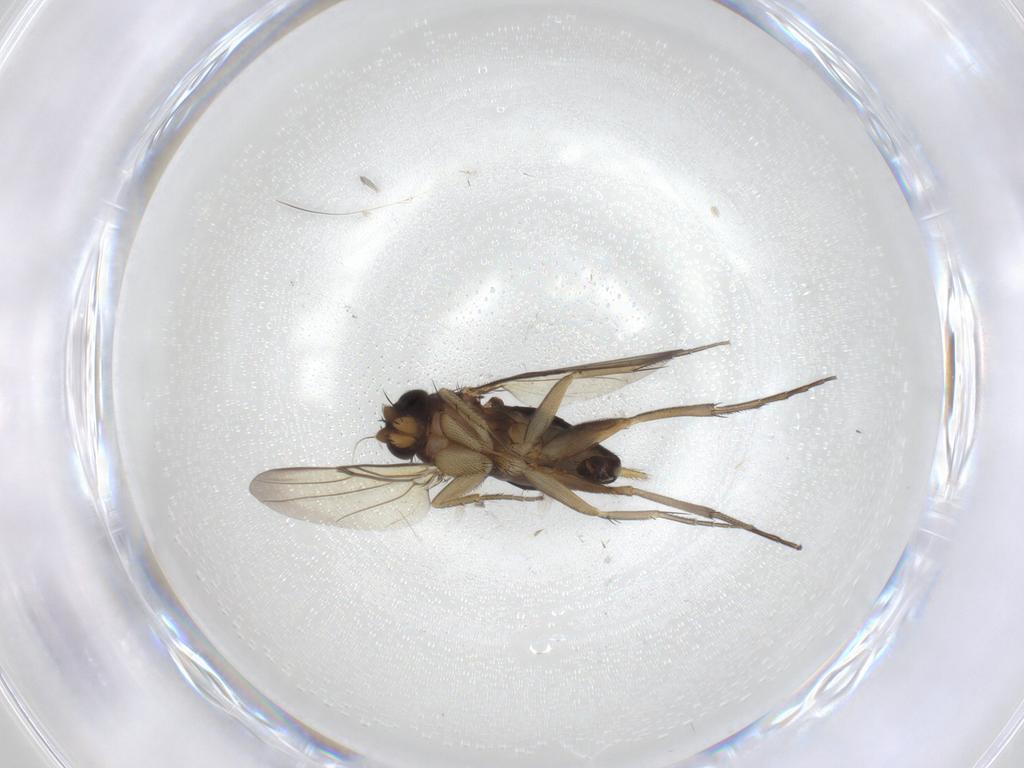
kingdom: Animalia
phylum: Arthropoda
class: Insecta
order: Diptera
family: Phoridae
